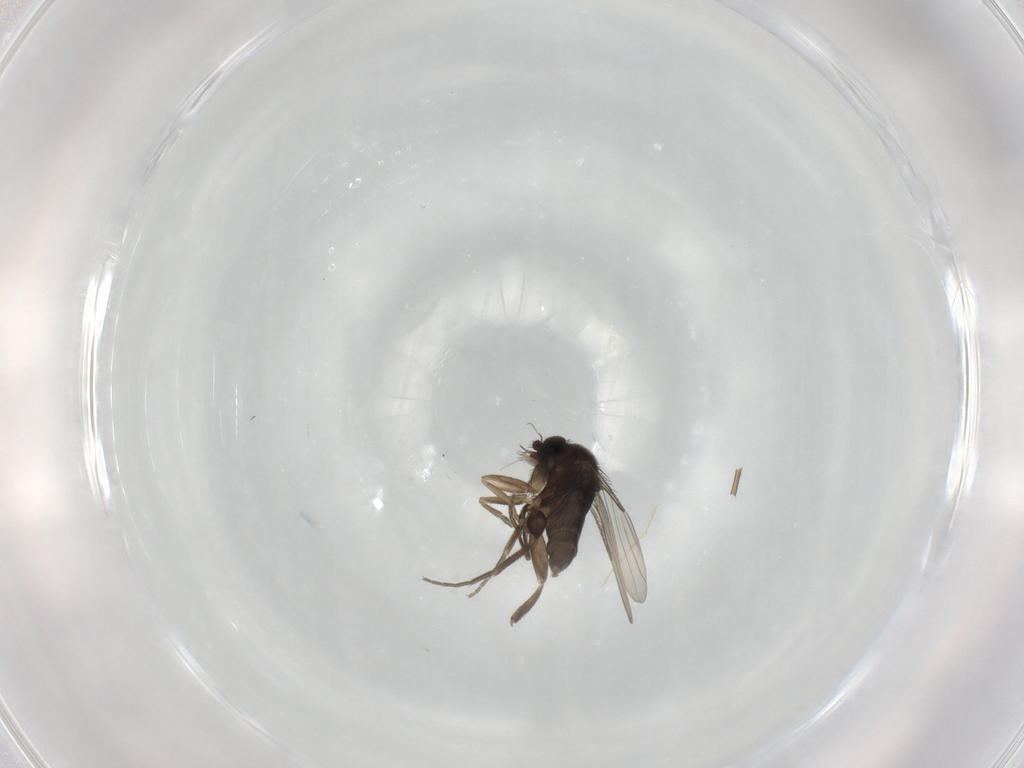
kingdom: Animalia
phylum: Arthropoda
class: Insecta
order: Diptera
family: Phoridae
